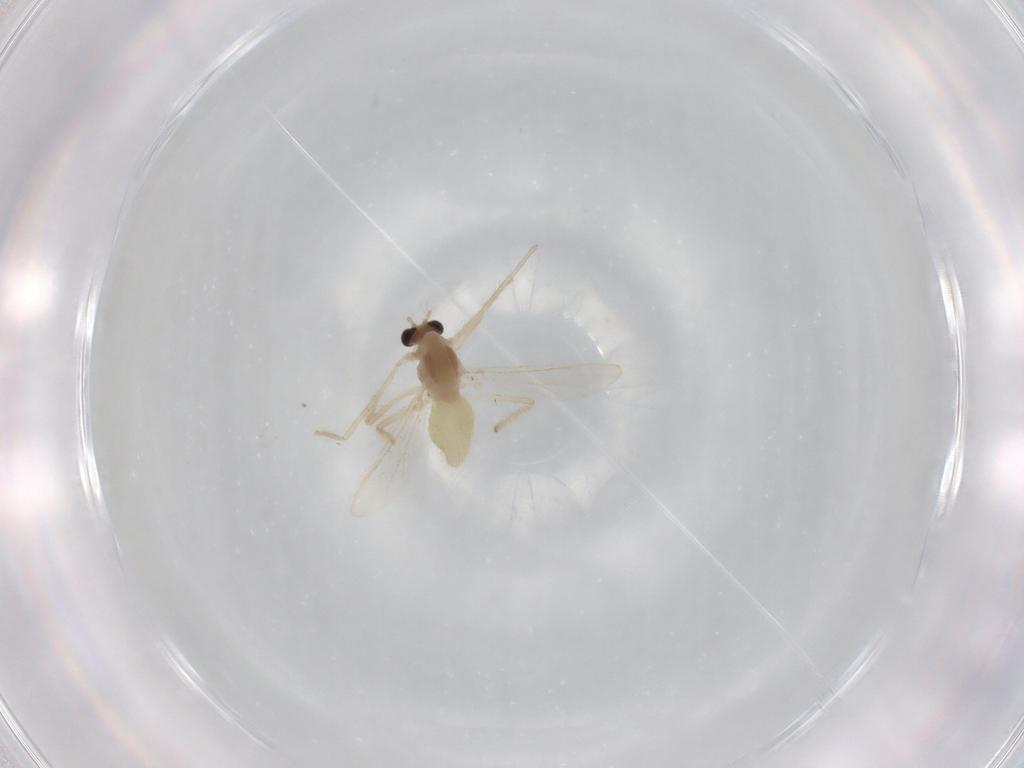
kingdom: Animalia
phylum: Arthropoda
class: Insecta
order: Diptera
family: Chironomidae
